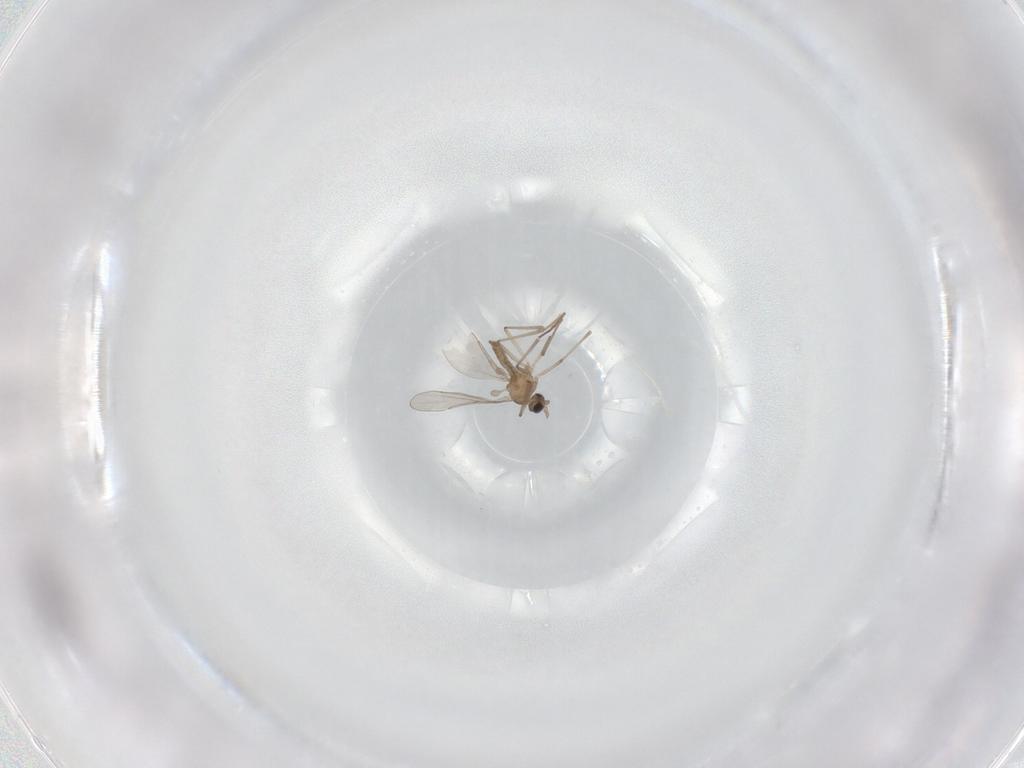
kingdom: Animalia
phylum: Arthropoda
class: Insecta
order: Diptera
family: Cecidomyiidae
